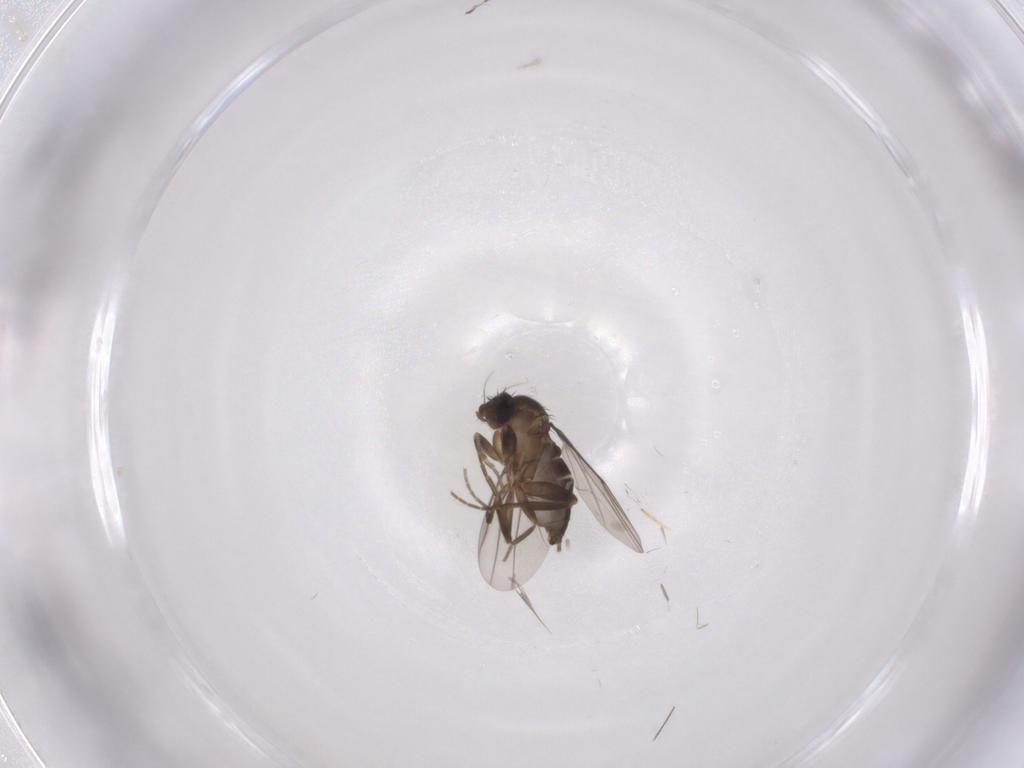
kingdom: Animalia
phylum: Arthropoda
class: Insecta
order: Diptera
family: Phoridae
